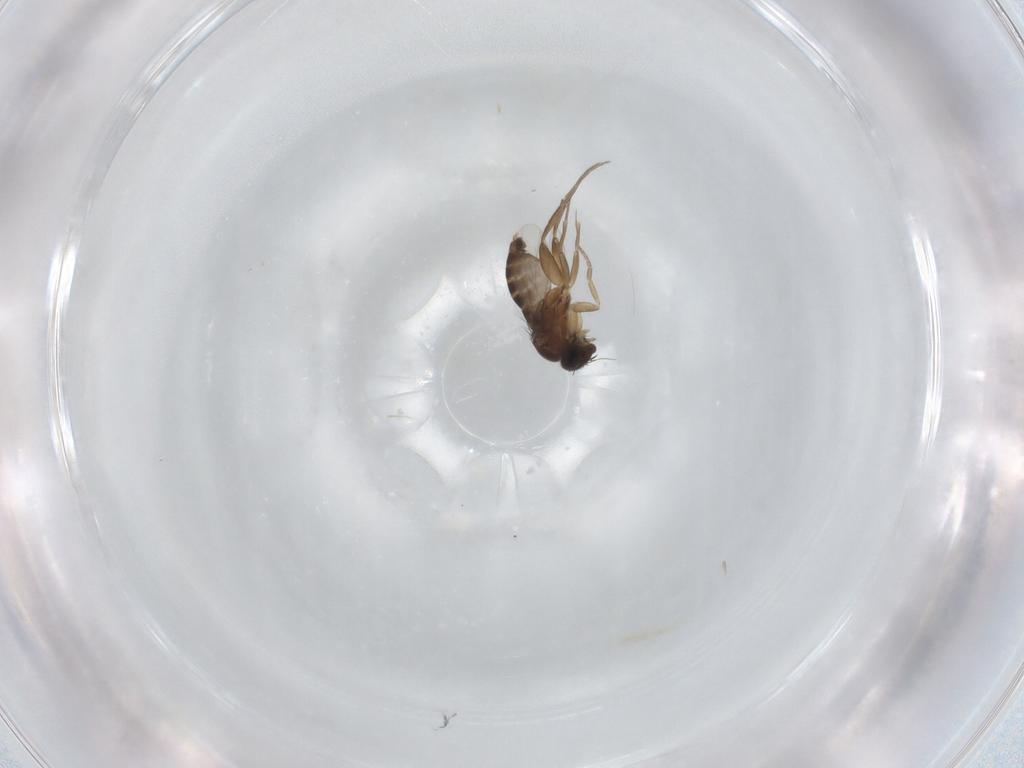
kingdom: Animalia
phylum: Arthropoda
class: Insecta
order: Diptera
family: Phoridae
